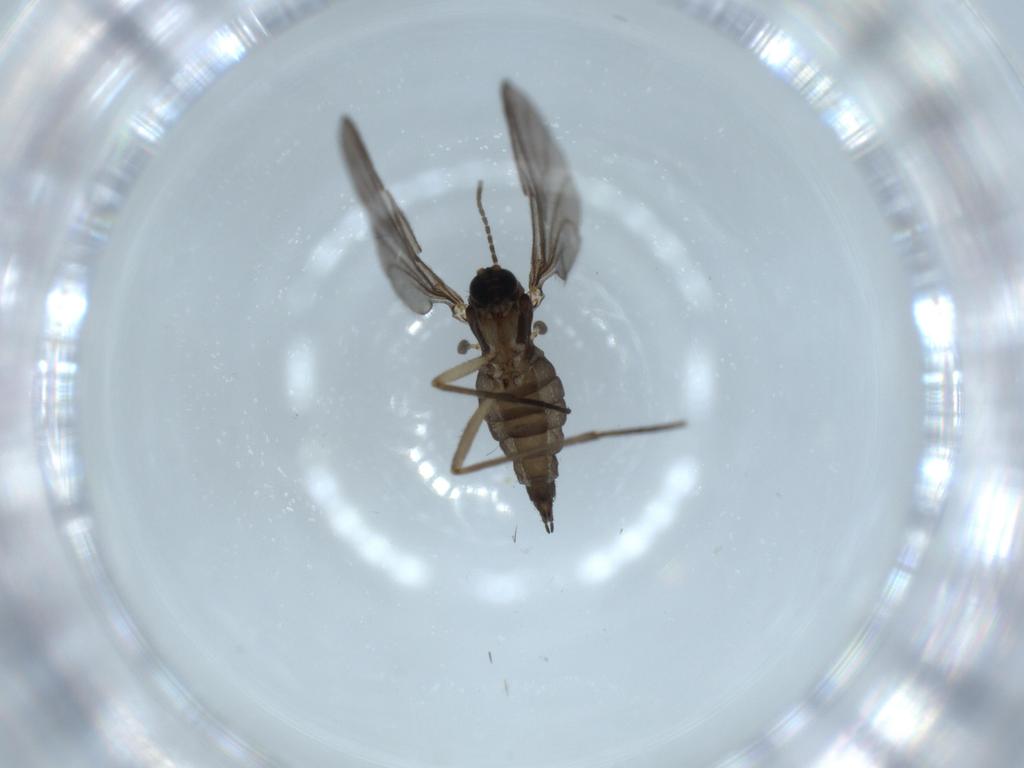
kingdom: Animalia
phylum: Arthropoda
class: Insecta
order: Diptera
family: Sciaridae
